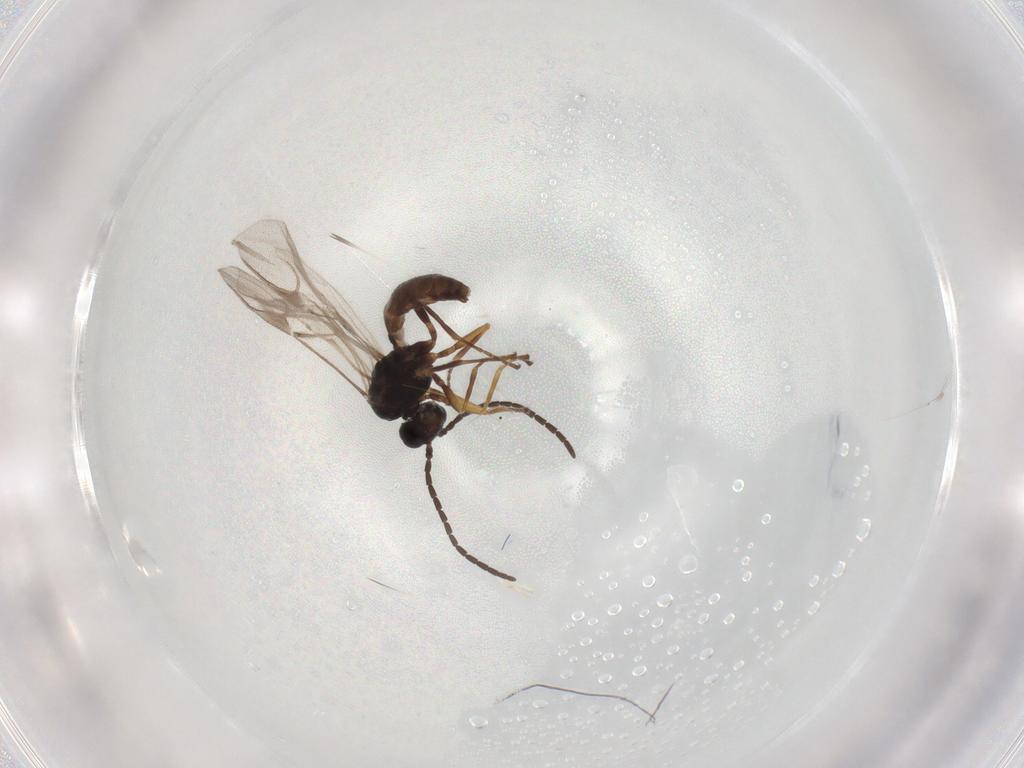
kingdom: Animalia
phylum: Arthropoda
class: Insecta
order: Hymenoptera
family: Braconidae
